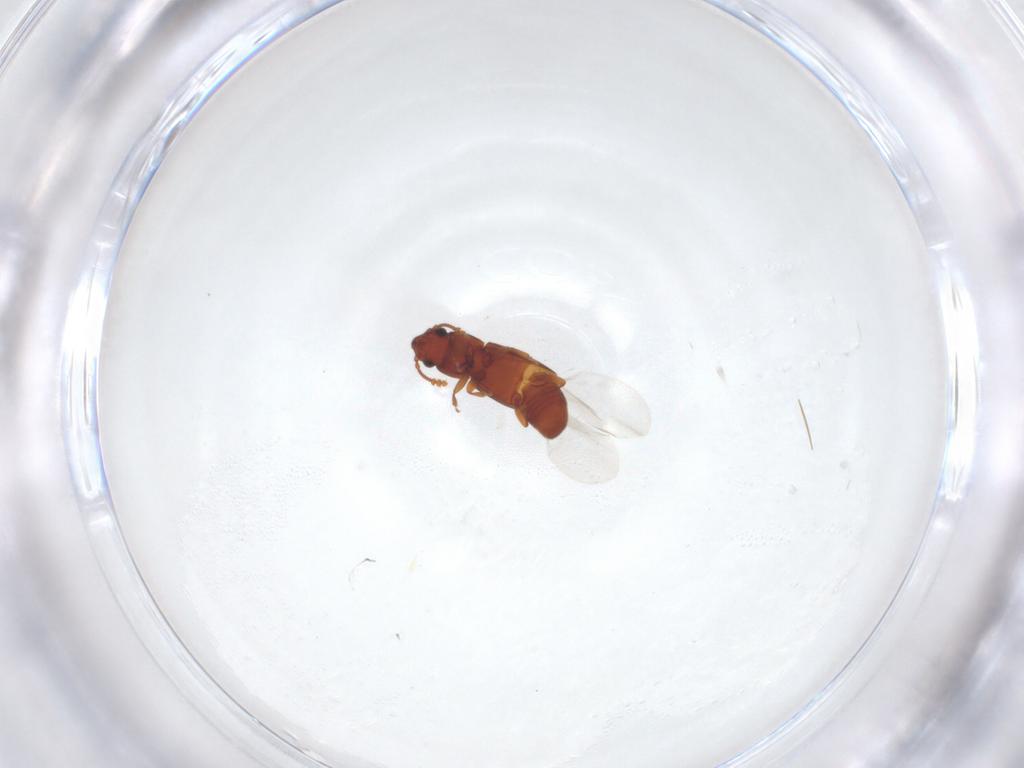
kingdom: Animalia
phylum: Arthropoda
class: Insecta
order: Coleoptera
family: Smicripidae
